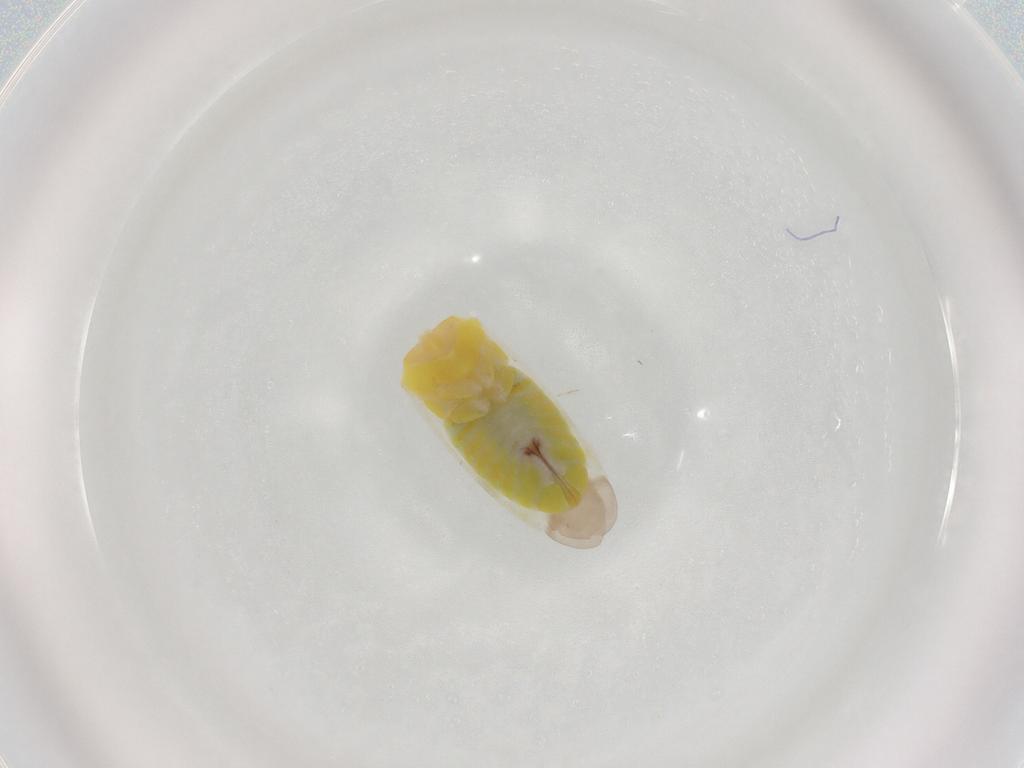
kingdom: Animalia
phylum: Arthropoda
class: Insecta
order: Hemiptera
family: Miridae
